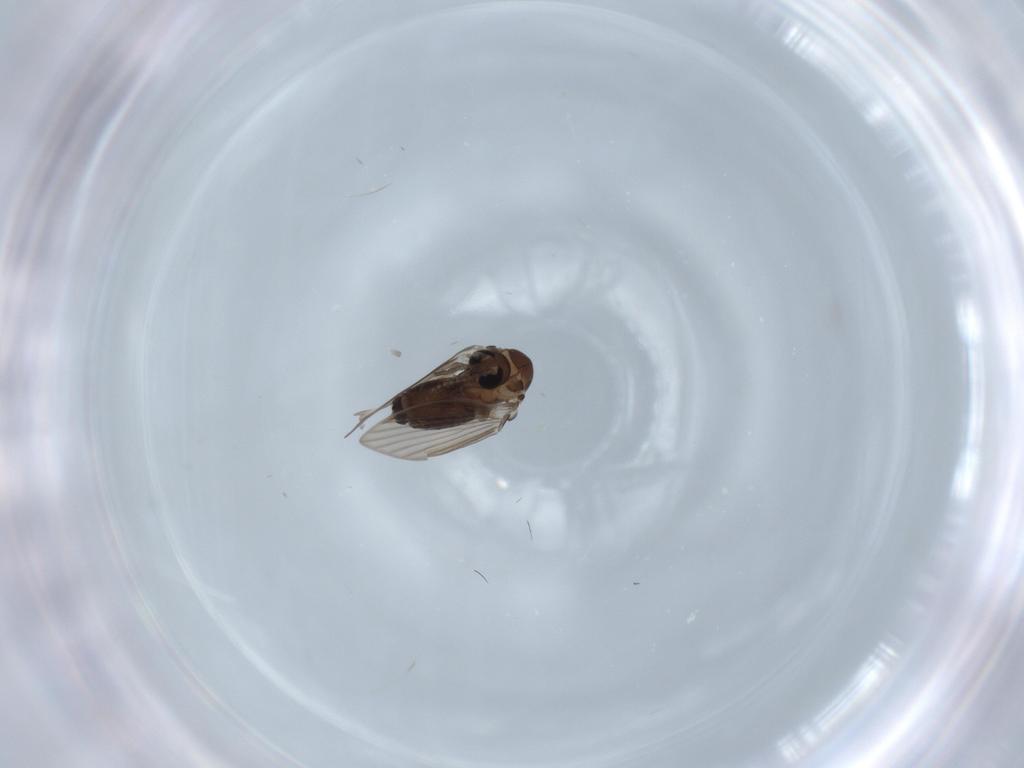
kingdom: Animalia
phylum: Arthropoda
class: Insecta
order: Diptera
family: Psychodidae
